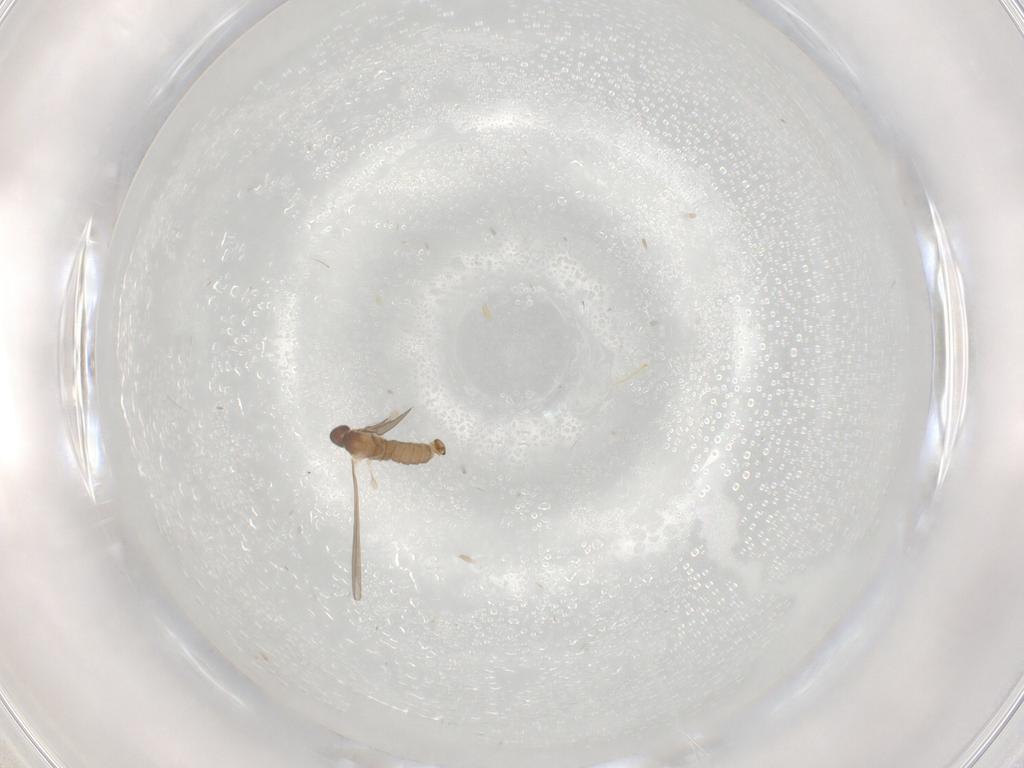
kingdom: Animalia
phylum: Arthropoda
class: Insecta
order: Diptera
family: Cecidomyiidae
